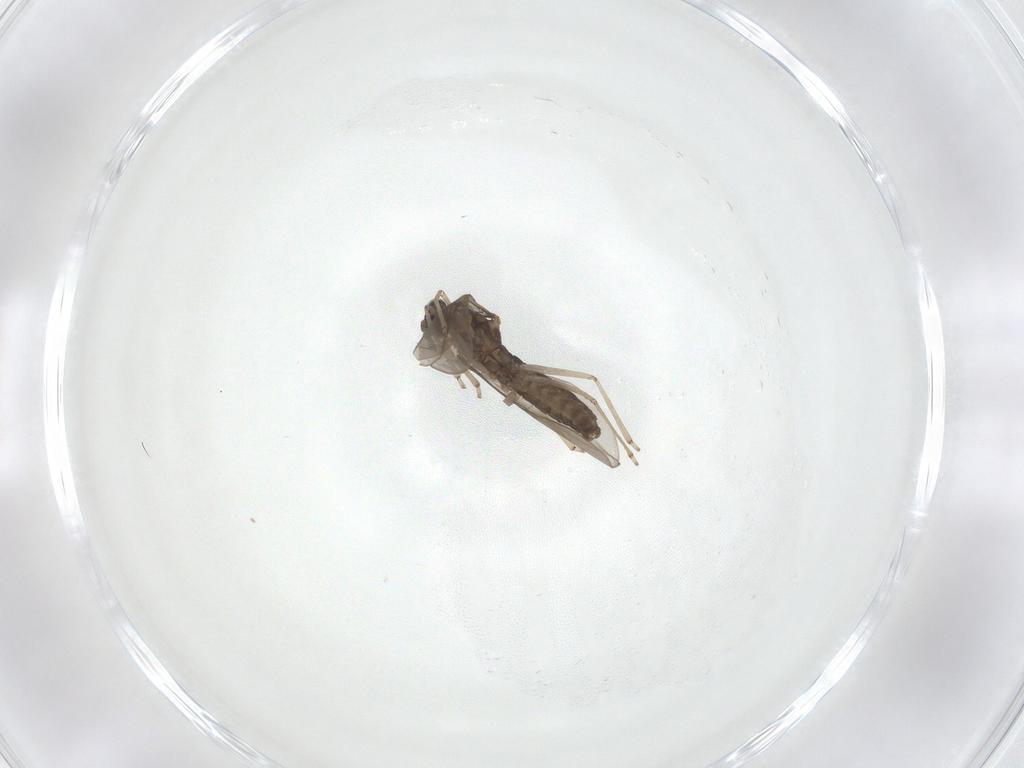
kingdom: Animalia
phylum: Arthropoda
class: Insecta
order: Diptera
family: Cecidomyiidae
